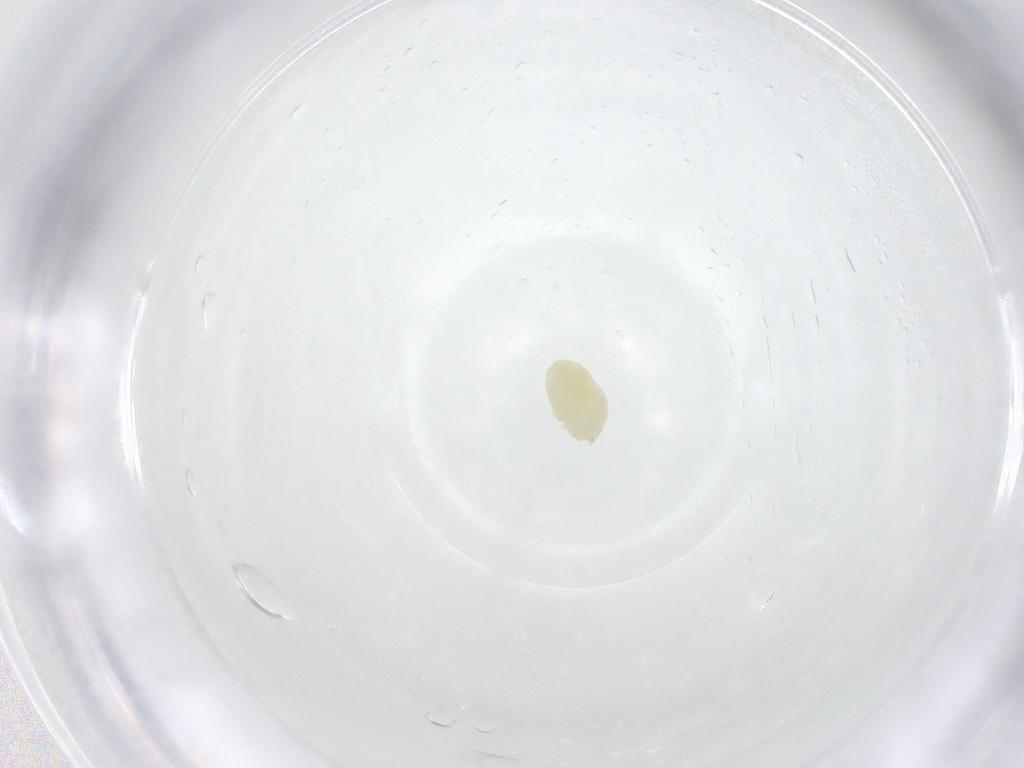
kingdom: Animalia
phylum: Arthropoda
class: Arachnida
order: Trombidiformes
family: Trombidiidae
